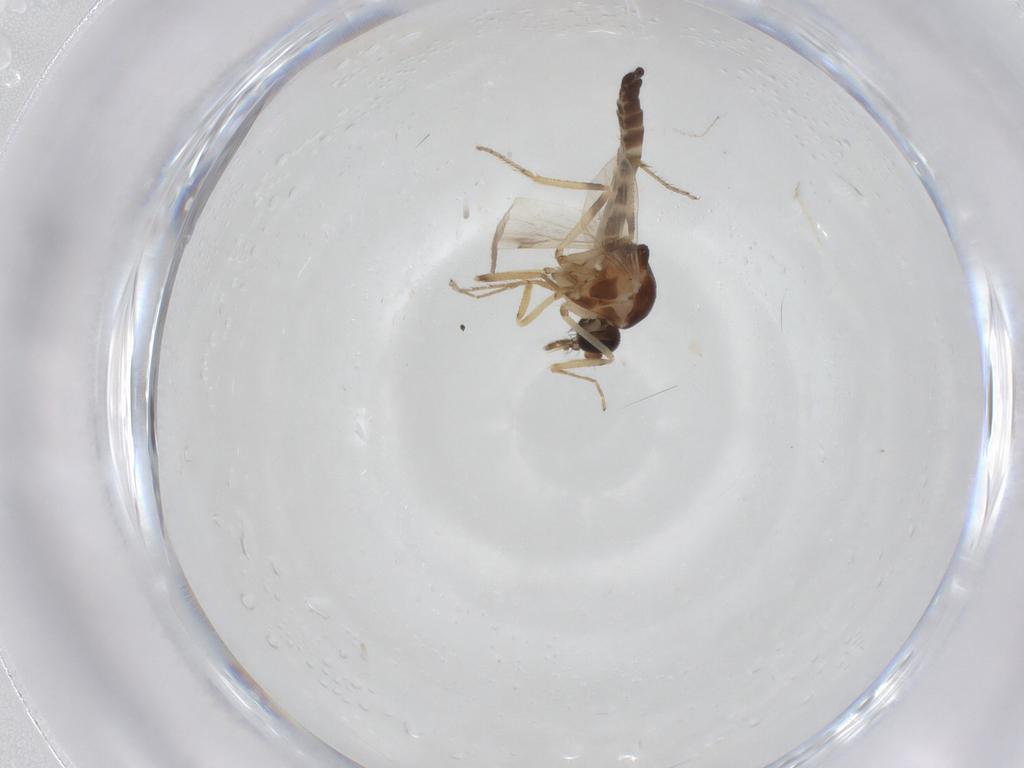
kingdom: Animalia
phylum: Arthropoda
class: Insecta
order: Diptera
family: Ceratopogonidae
